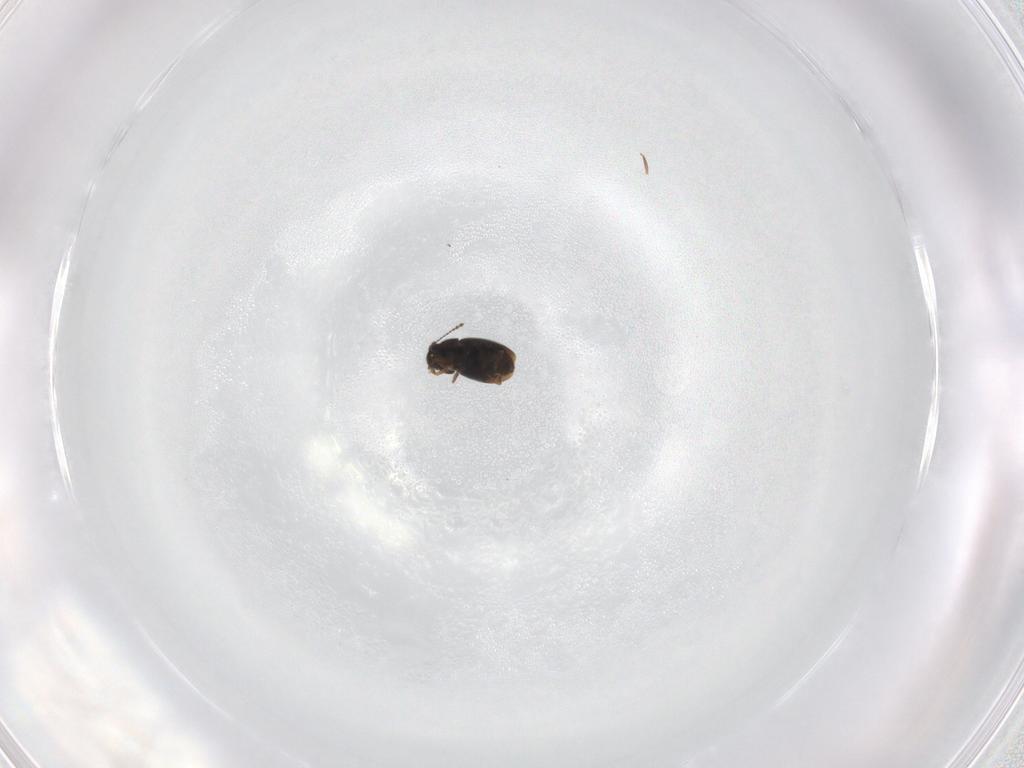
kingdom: Animalia
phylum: Arthropoda
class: Insecta
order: Coleoptera
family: Ptiliidae
